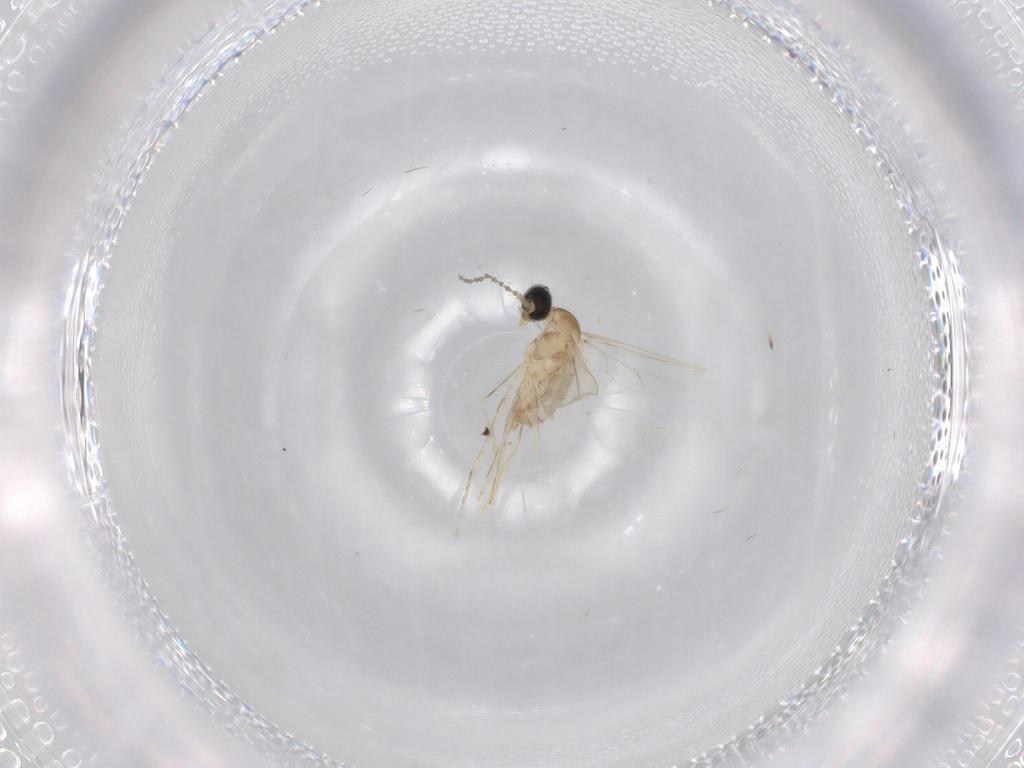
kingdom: Animalia
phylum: Arthropoda
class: Insecta
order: Diptera
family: Cecidomyiidae
